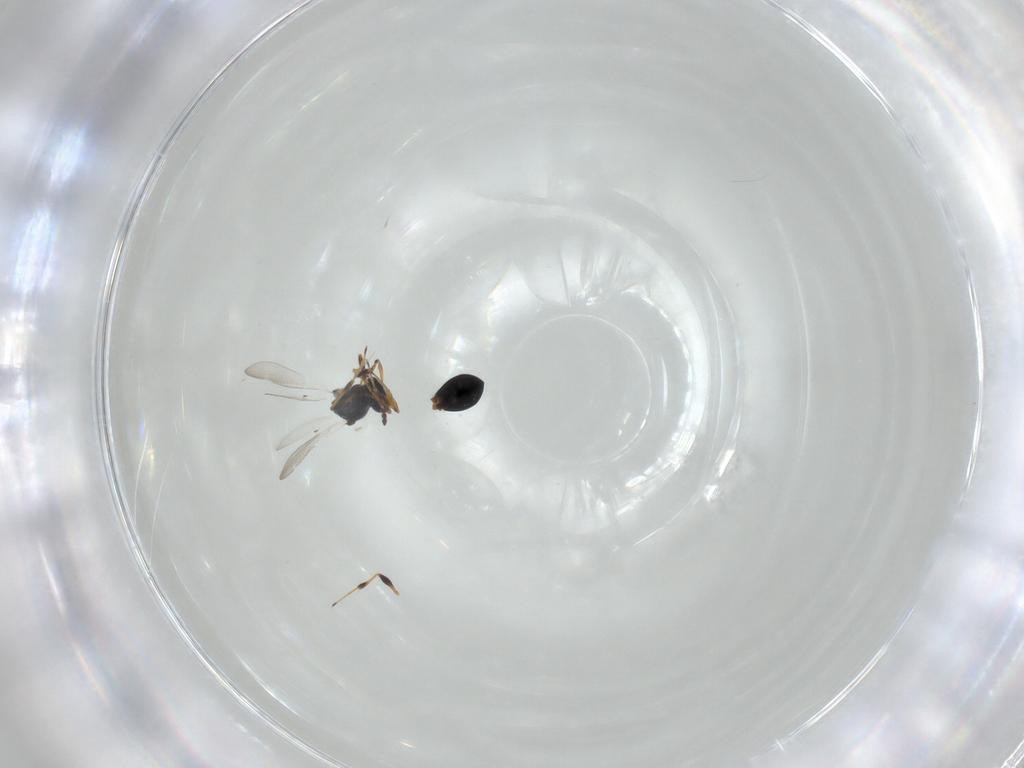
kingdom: Animalia
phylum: Arthropoda
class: Insecta
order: Hymenoptera
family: Platygastridae
